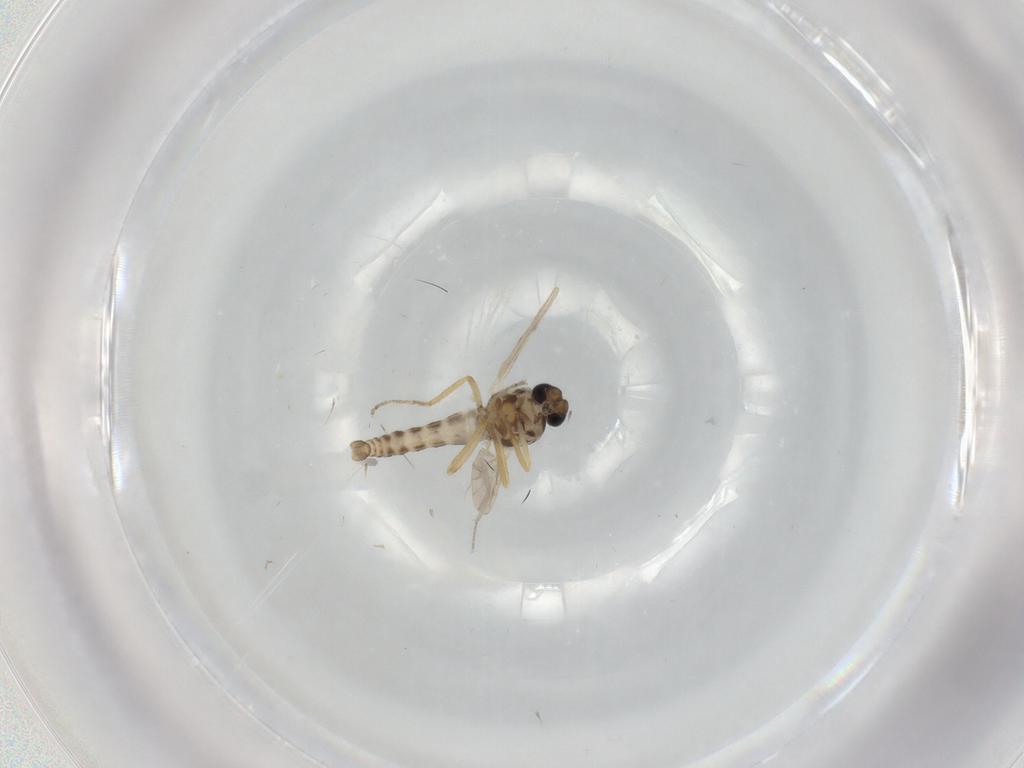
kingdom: Animalia
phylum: Arthropoda
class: Insecta
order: Diptera
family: Ceratopogonidae
